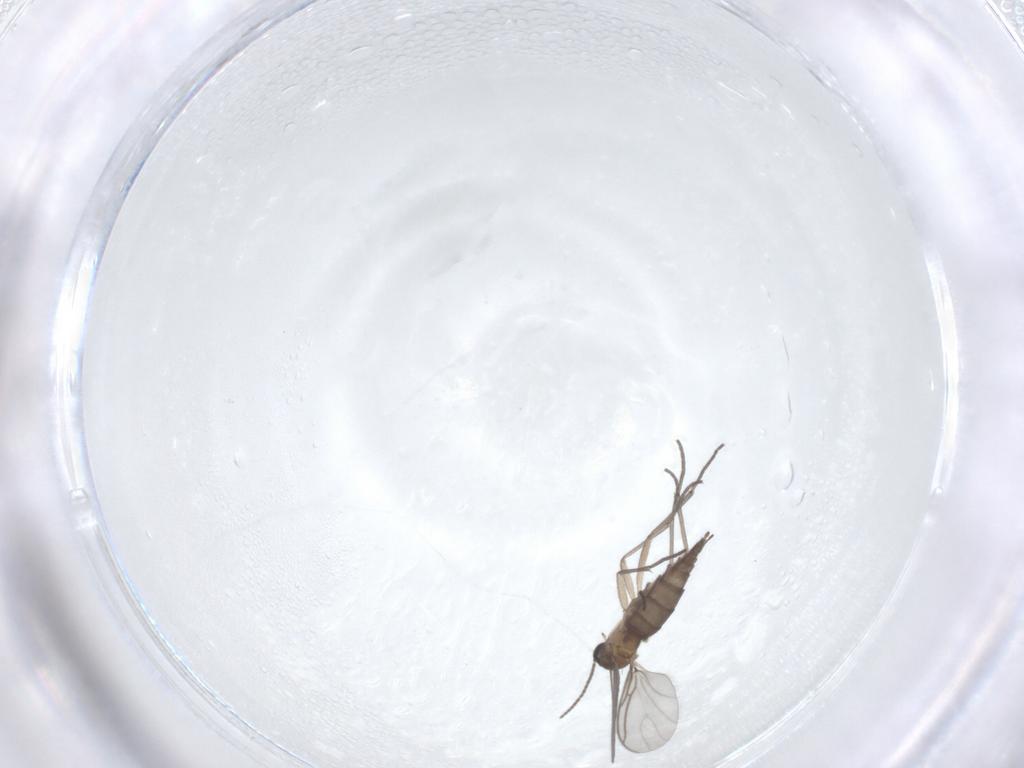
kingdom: Animalia
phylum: Arthropoda
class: Insecta
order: Diptera
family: Sciaridae
